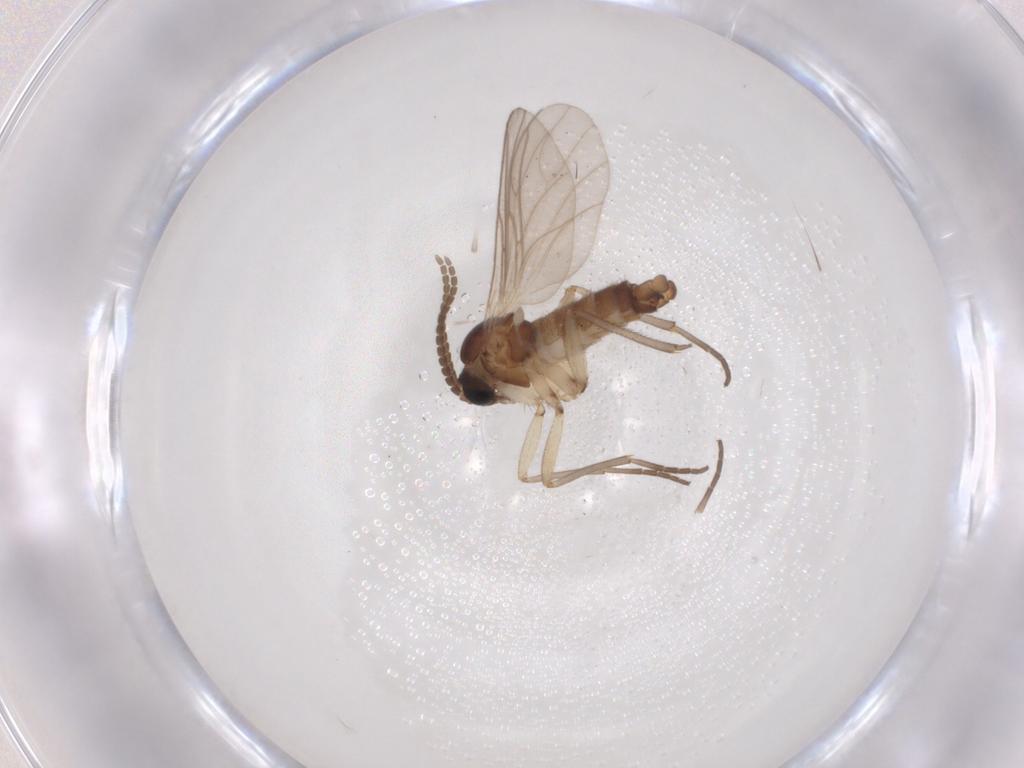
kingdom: Animalia
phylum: Arthropoda
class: Insecta
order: Diptera
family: Sciaridae
